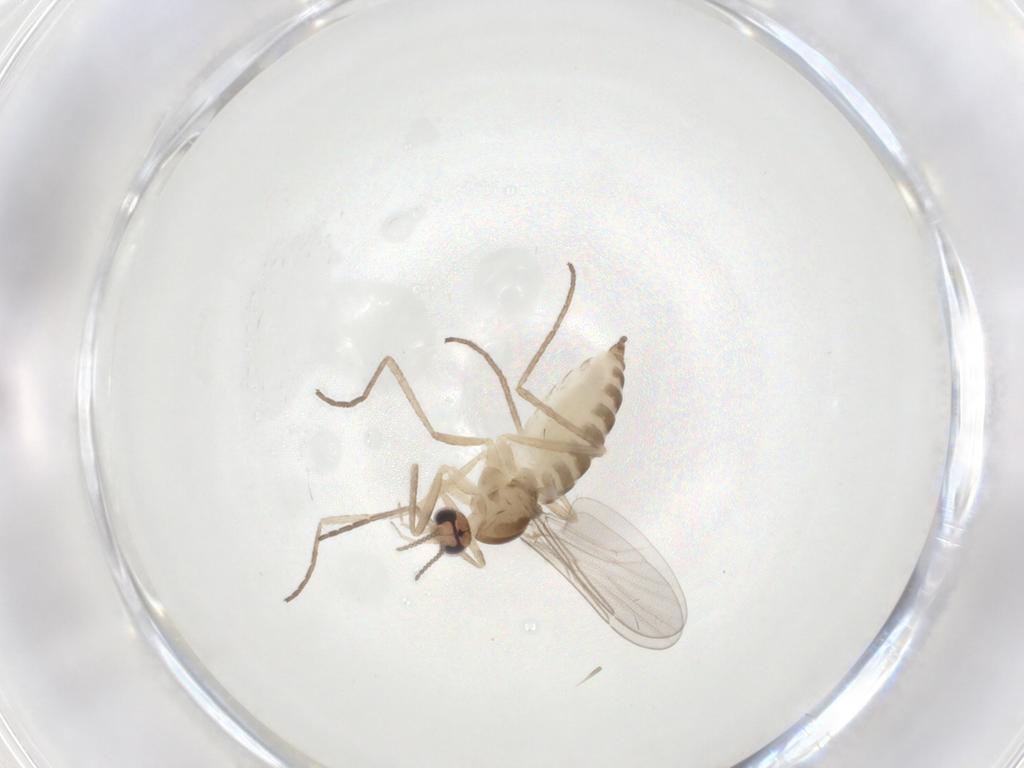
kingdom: Animalia
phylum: Arthropoda
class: Insecta
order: Diptera
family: Cecidomyiidae
